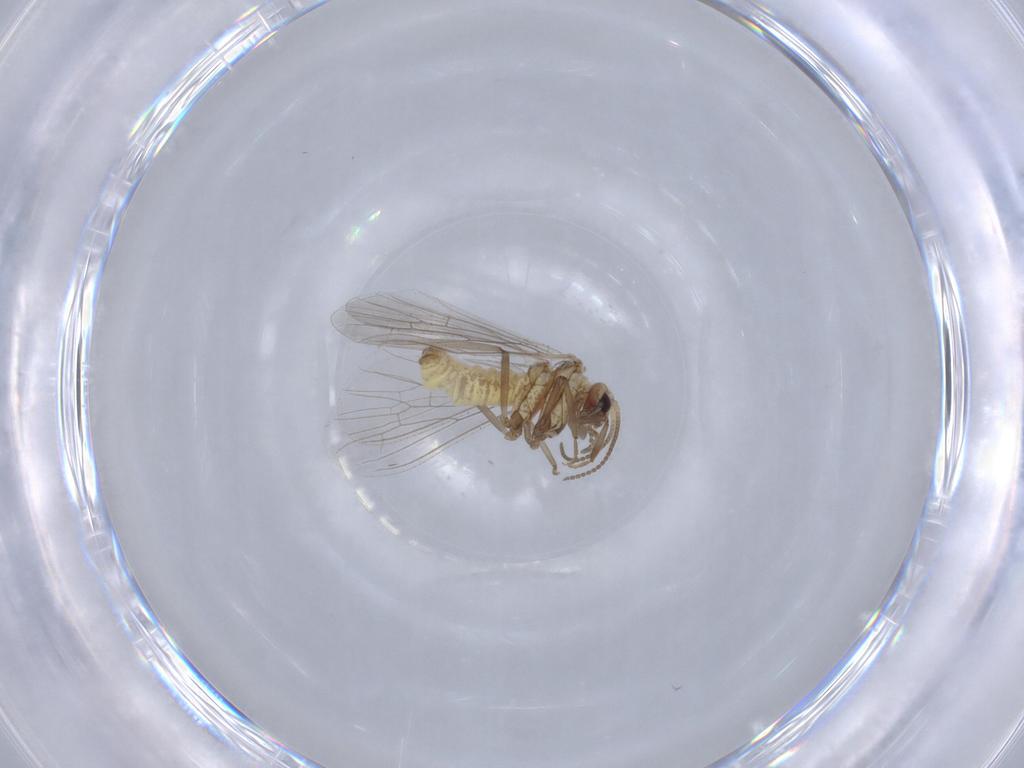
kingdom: Animalia
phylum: Arthropoda
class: Insecta
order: Neuroptera
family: Coniopterygidae
